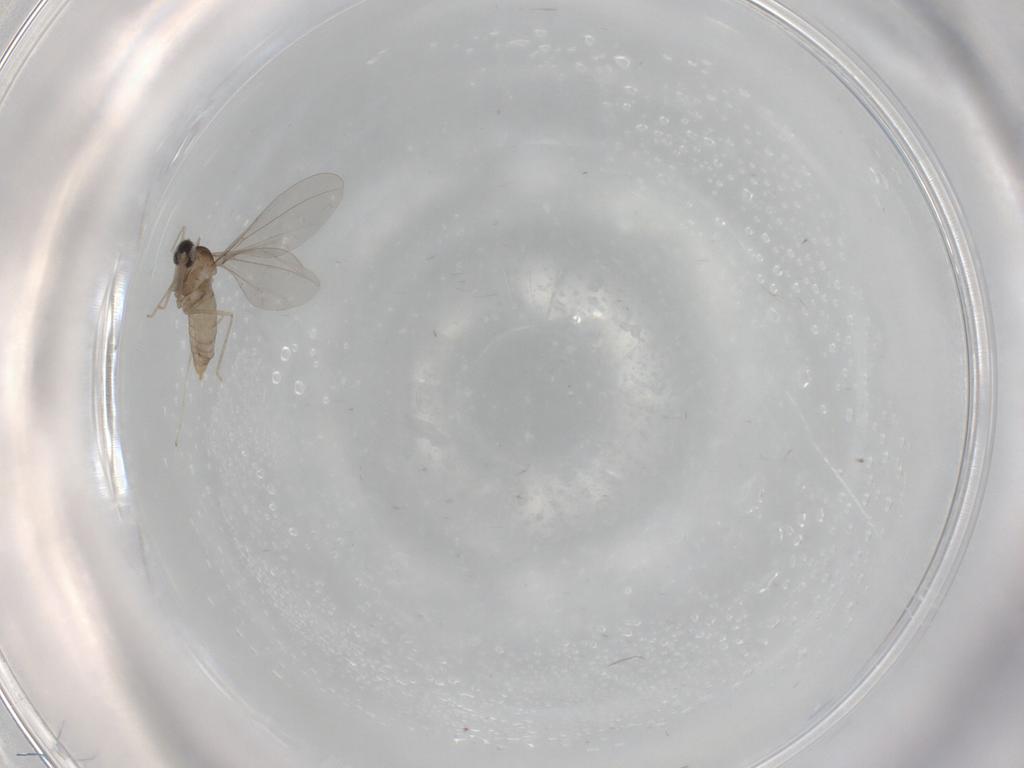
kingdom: Animalia
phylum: Arthropoda
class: Insecta
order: Diptera
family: Cecidomyiidae
